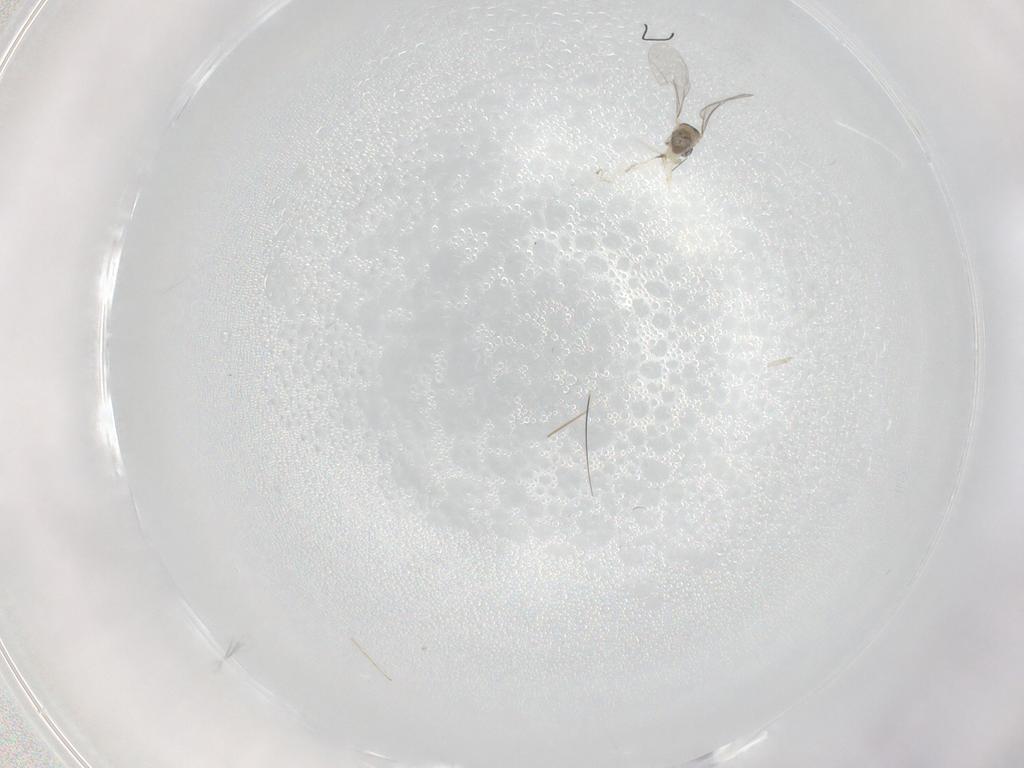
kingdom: Animalia
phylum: Arthropoda
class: Insecta
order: Diptera
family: Cecidomyiidae
